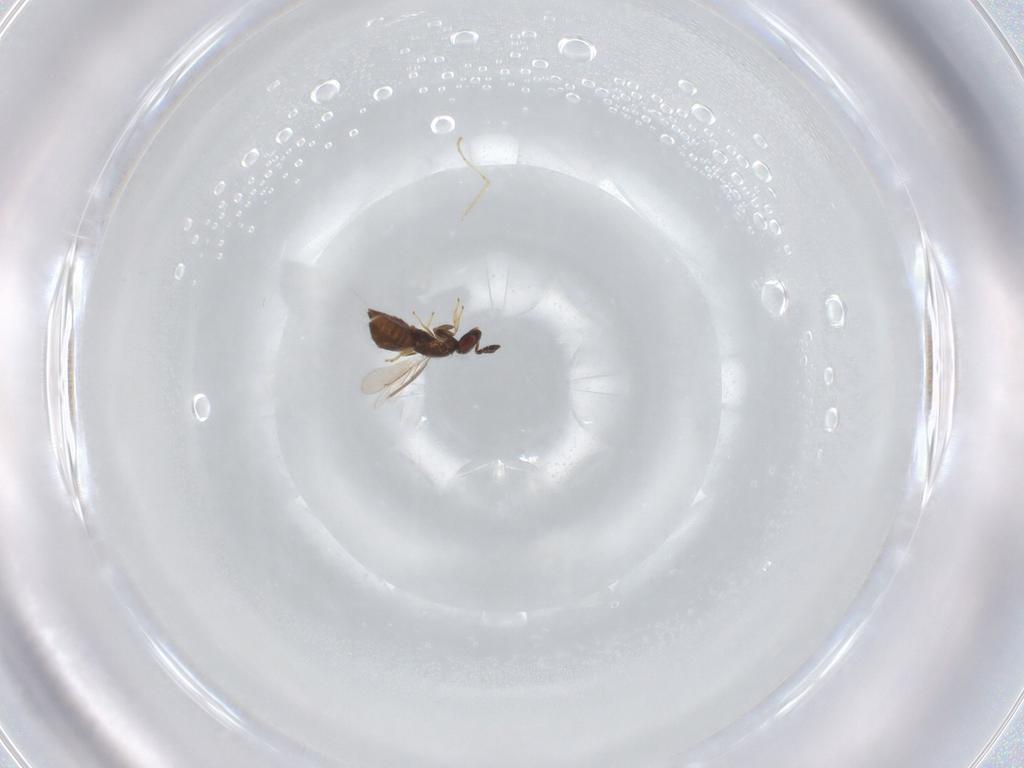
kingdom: Animalia
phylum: Arthropoda
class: Insecta
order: Hymenoptera
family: Aphelinidae
